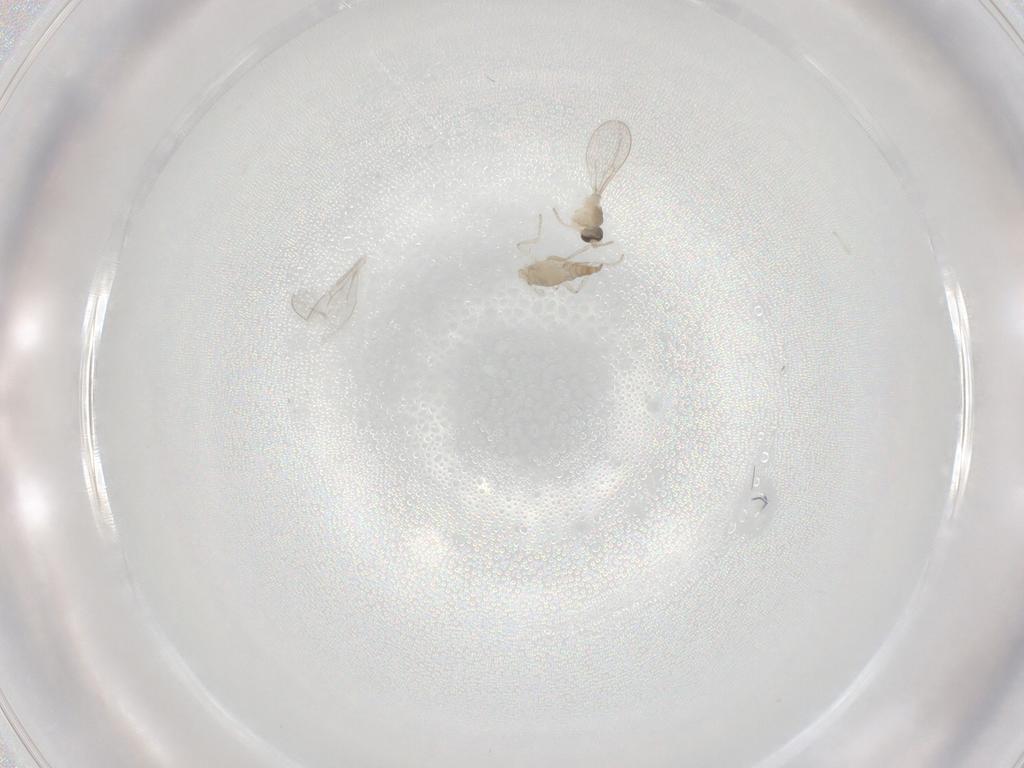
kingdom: Animalia
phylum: Arthropoda
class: Insecta
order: Diptera
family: Cecidomyiidae
